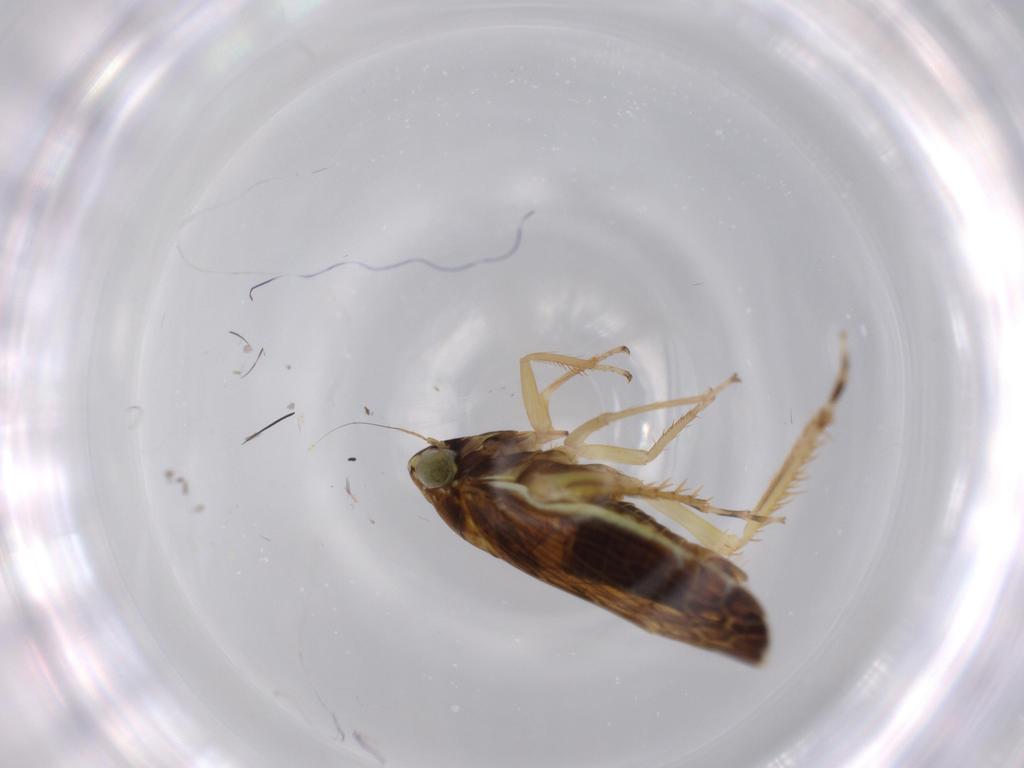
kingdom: Animalia
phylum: Arthropoda
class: Insecta
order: Hemiptera
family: Cicadellidae
